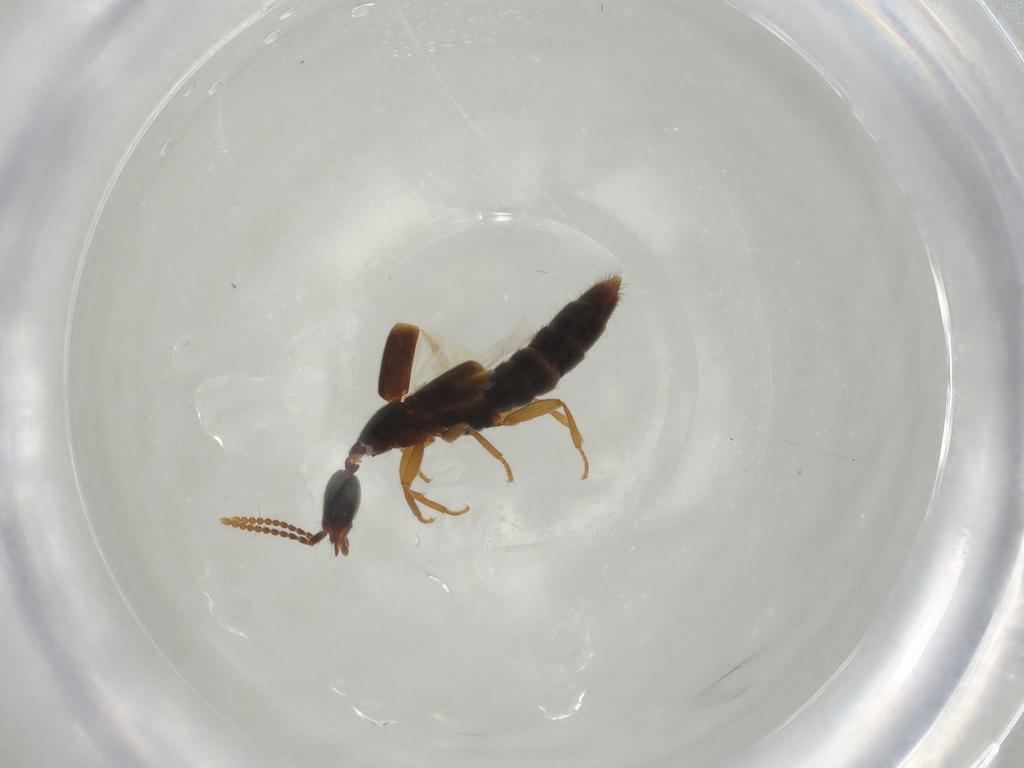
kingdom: Animalia
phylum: Arthropoda
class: Insecta
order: Coleoptera
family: Staphylinidae
